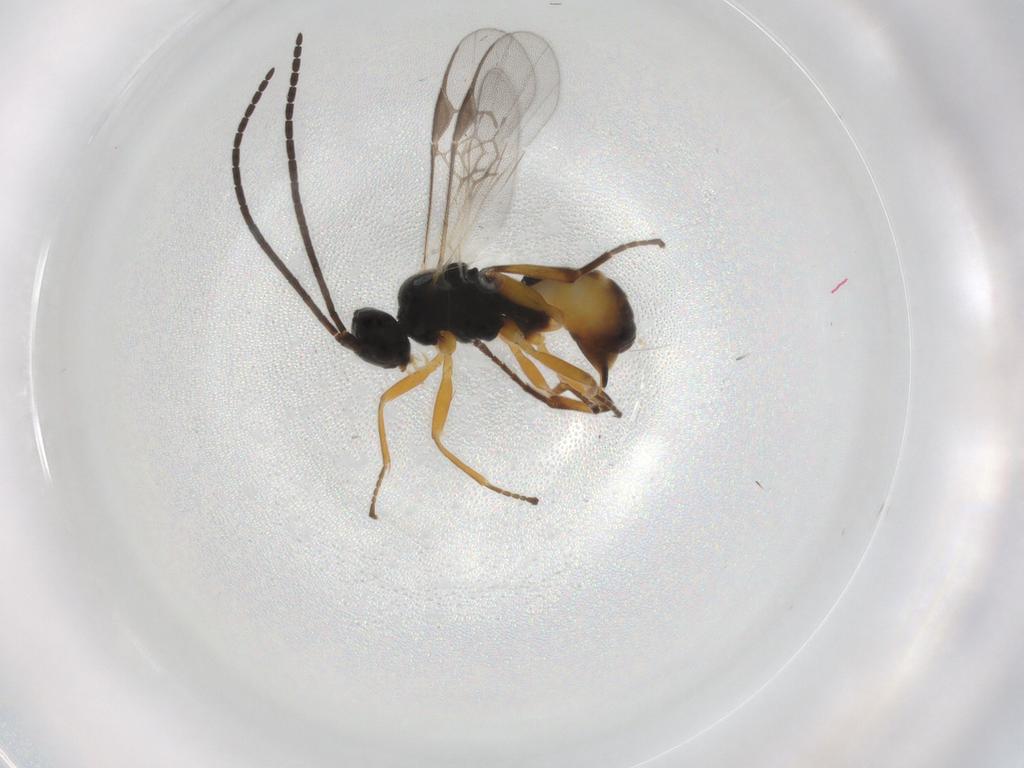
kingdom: Animalia
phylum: Arthropoda
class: Insecta
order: Hymenoptera
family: Braconidae
